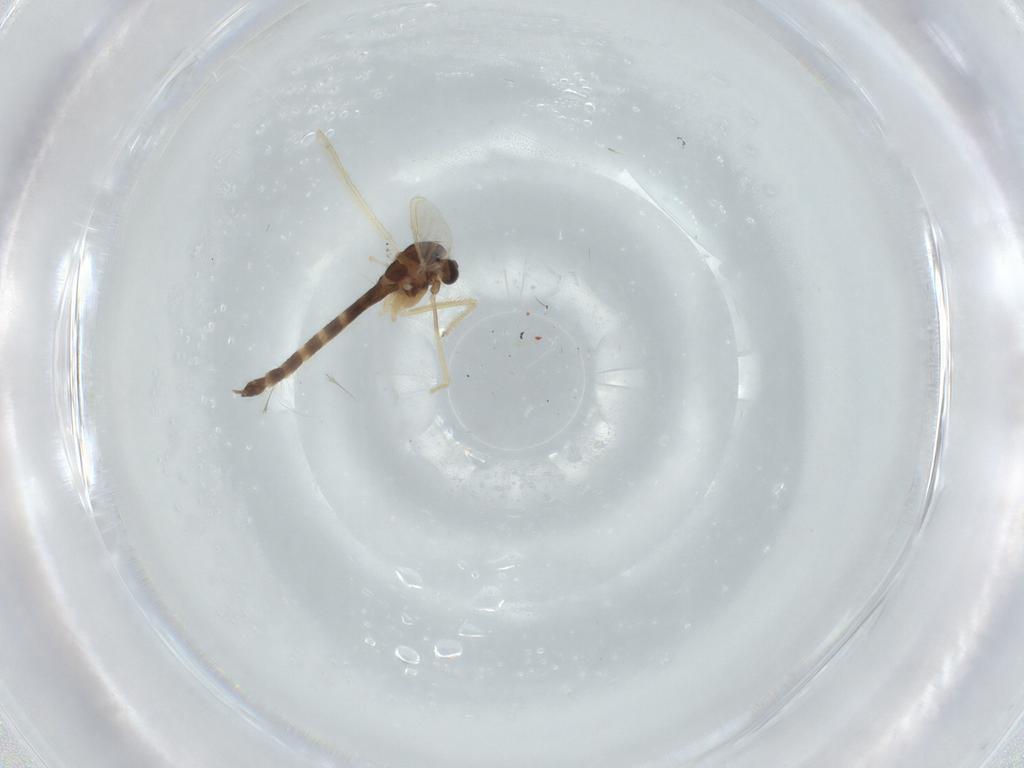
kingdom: Animalia
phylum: Arthropoda
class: Insecta
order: Diptera
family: Chironomidae
